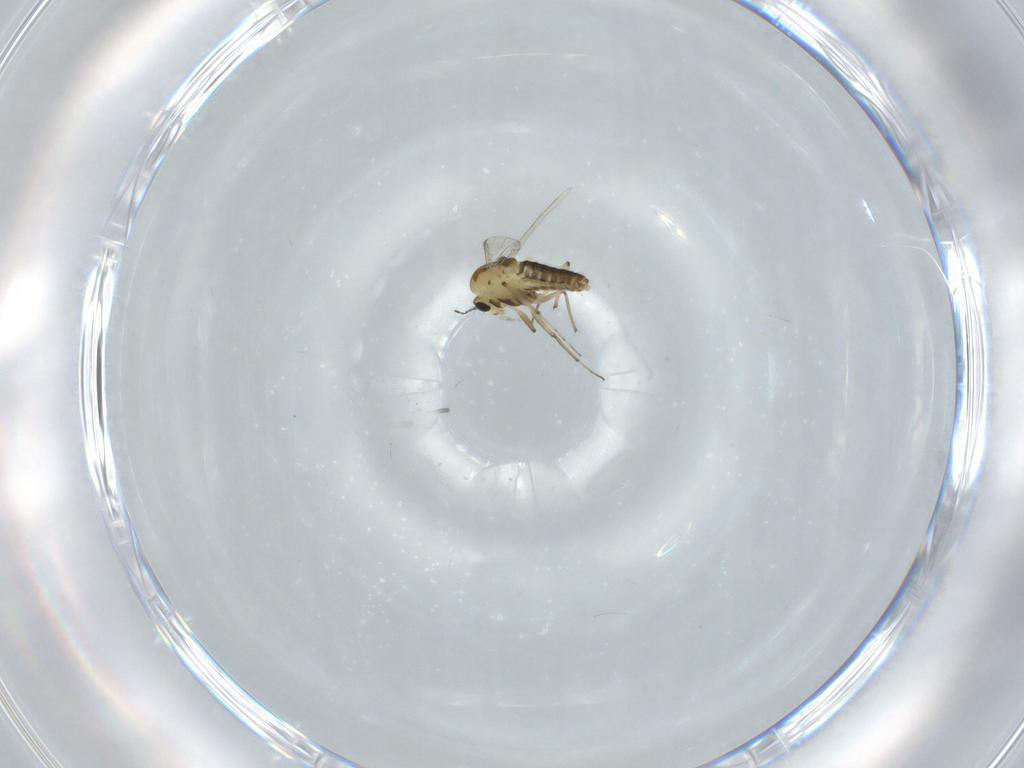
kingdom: Animalia
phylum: Arthropoda
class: Insecta
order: Diptera
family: Chironomidae
